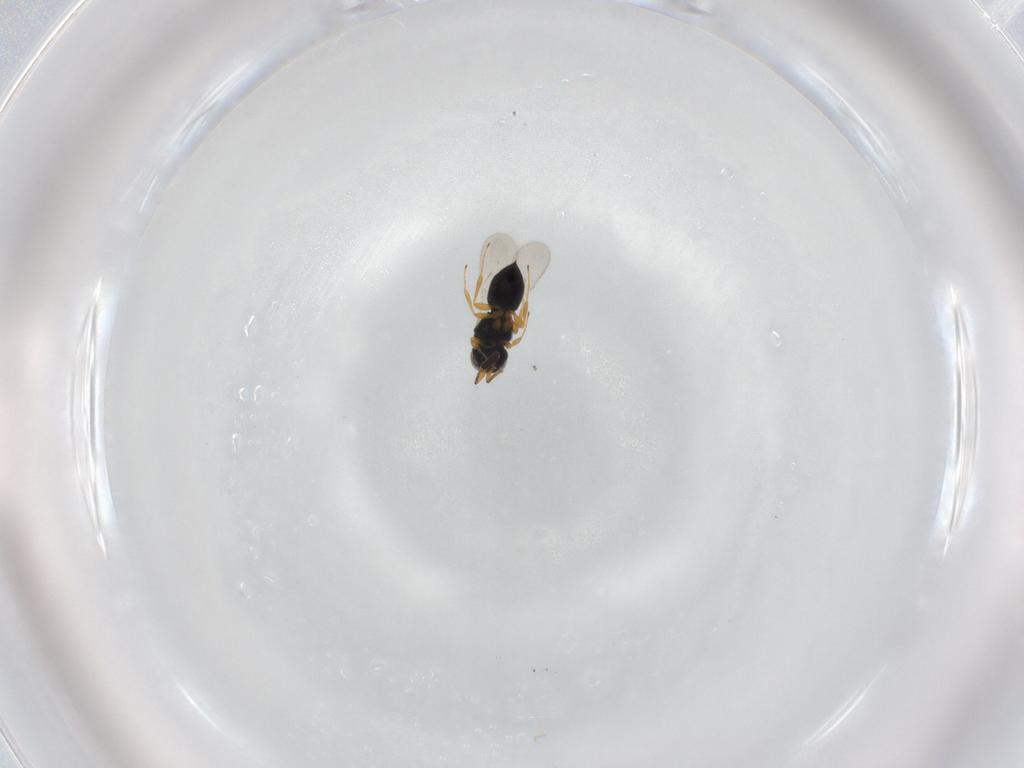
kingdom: Animalia
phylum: Arthropoda
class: Insecta
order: Hymenoptera
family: Scelionidae
